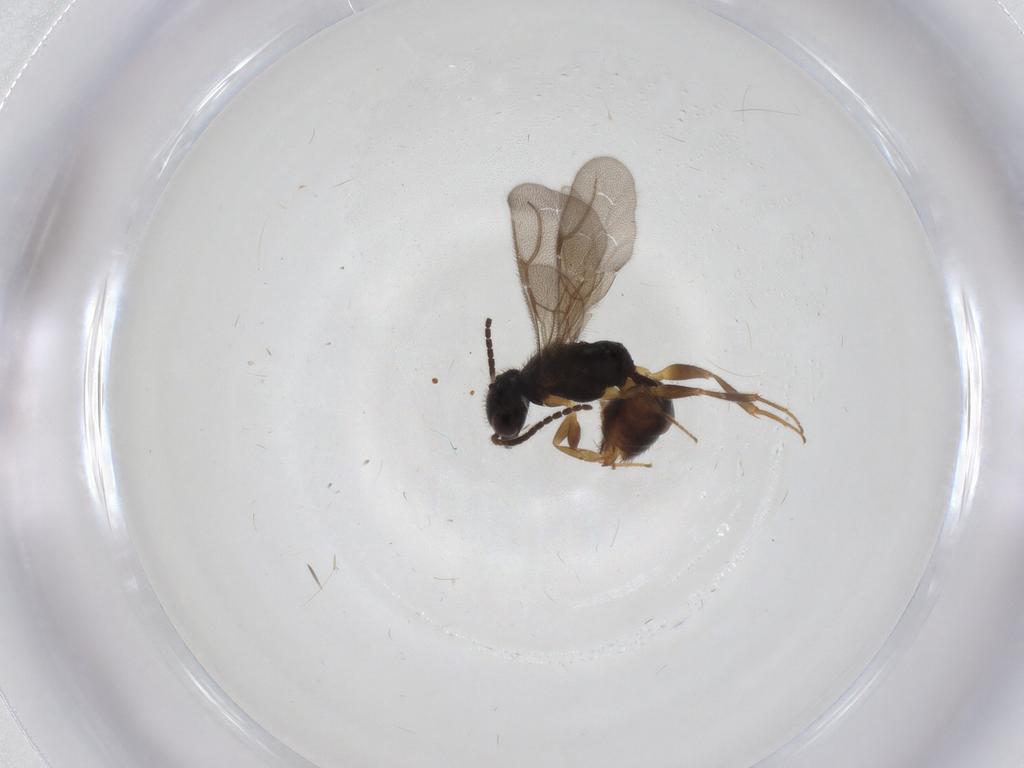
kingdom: Animalia
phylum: Arthropoda
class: Insecta
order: Hymenoptera
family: Bethylidae
